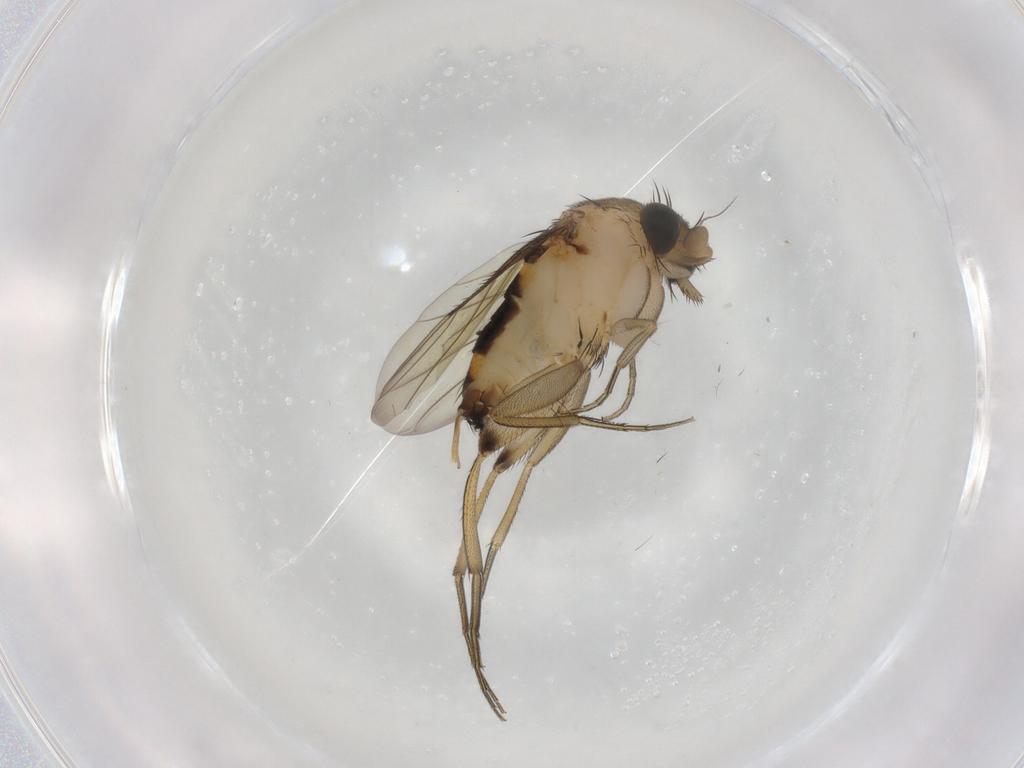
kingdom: Animalia
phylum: Arthropoda
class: Insecta
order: Diptera
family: Phoridae
